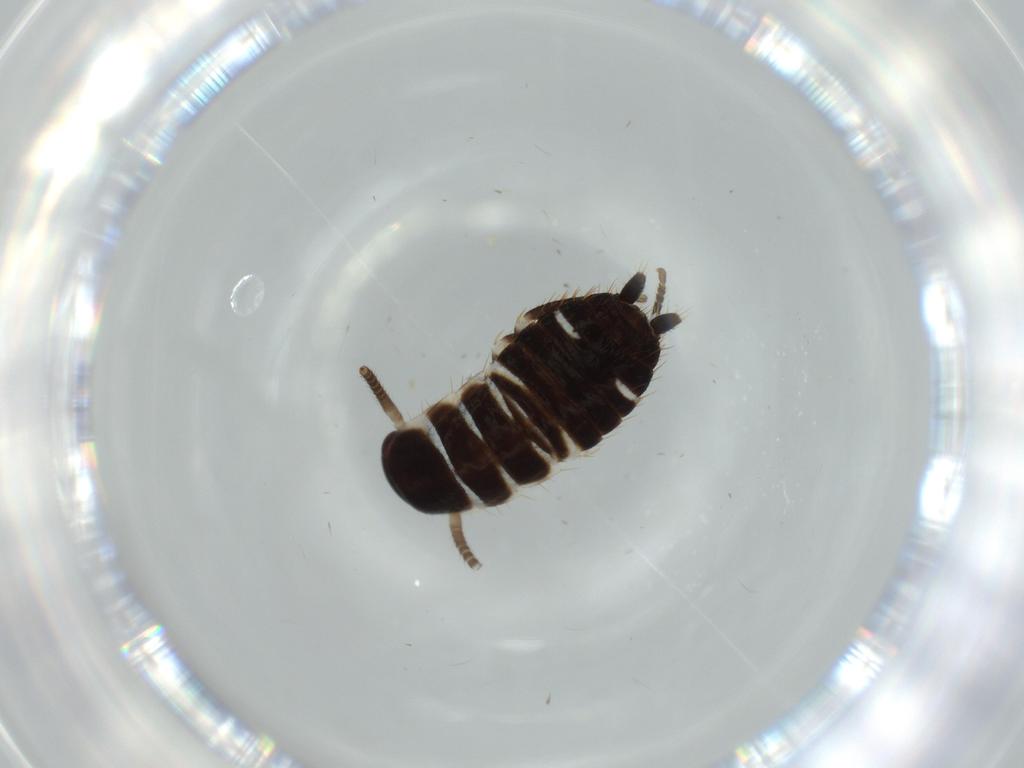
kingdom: Animalia
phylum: Arthropoda
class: Insecta
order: Blattodea
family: Ectobiidae
